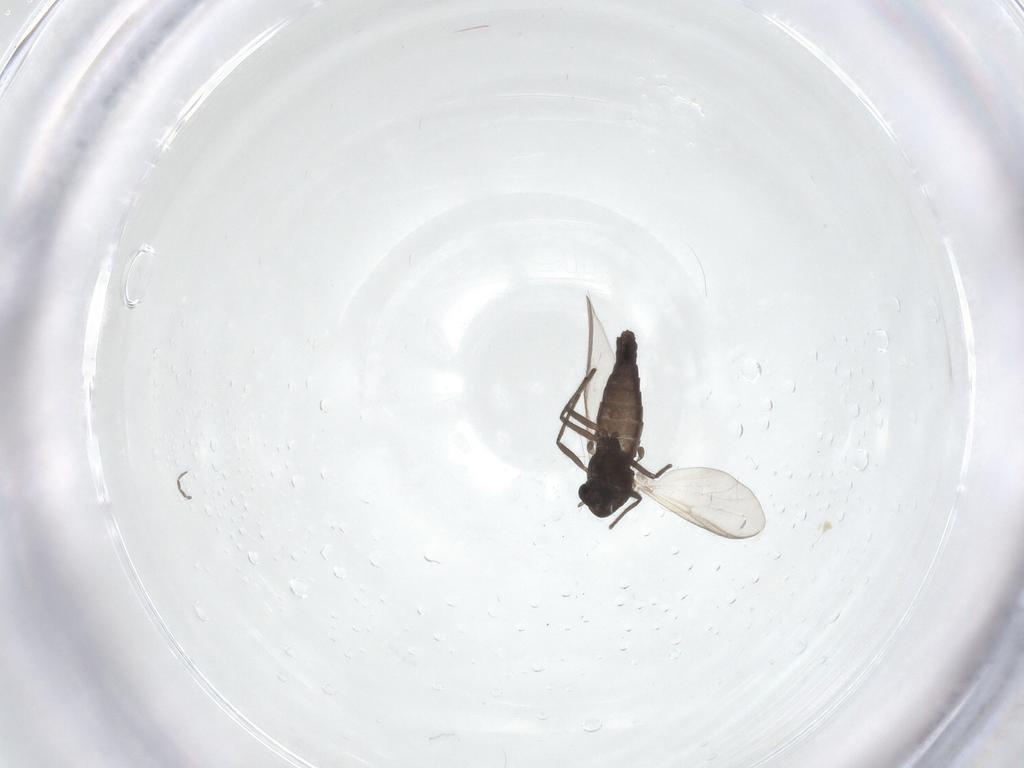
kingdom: Animalia
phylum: Arthropoda
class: Insecta
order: Diptera
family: Chironomidae
